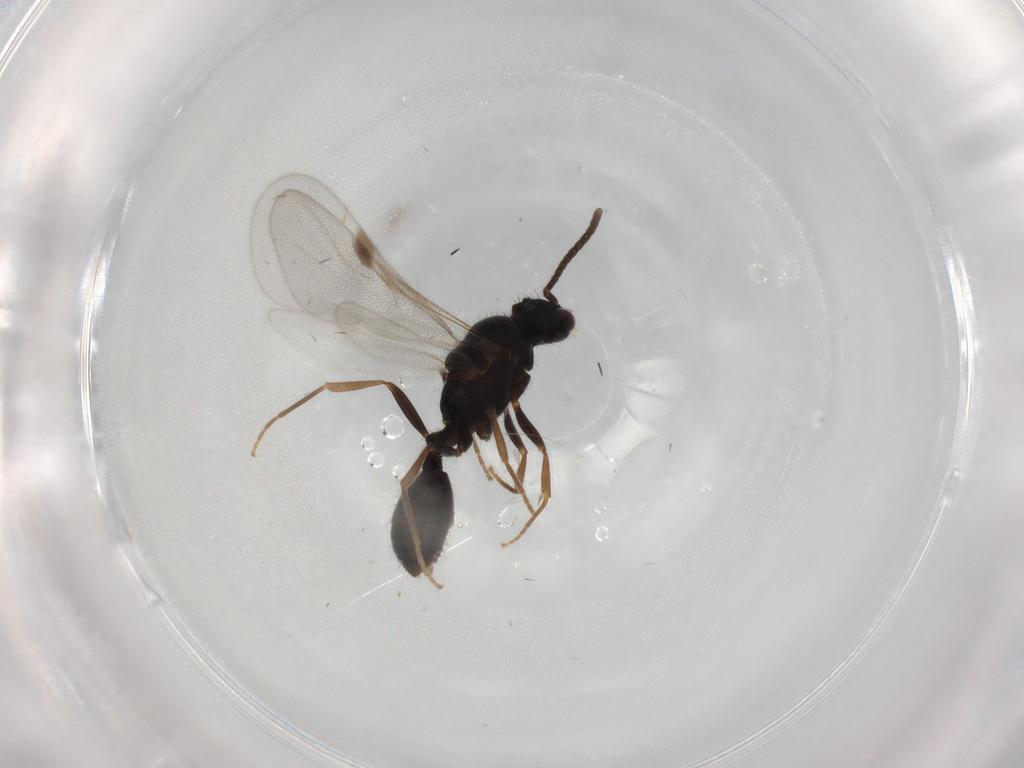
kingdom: Animalia
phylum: Arthropoda
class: Insecta
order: Hymenoptera
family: Formicidae
